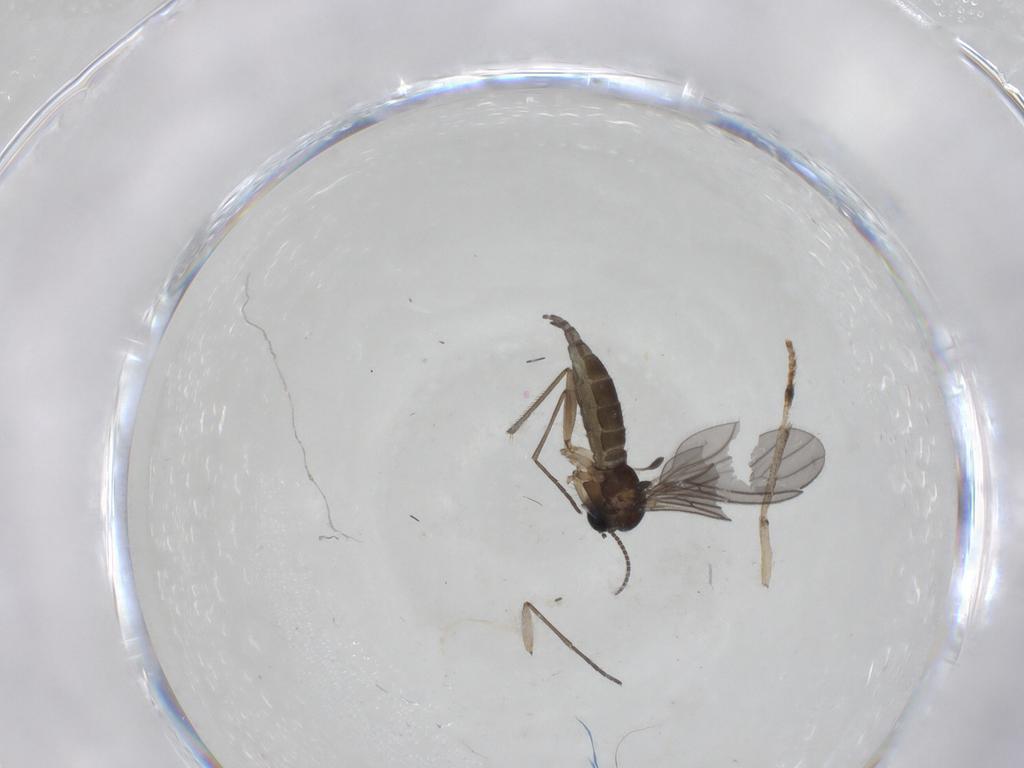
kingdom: Animalia
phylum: Arthropoda
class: Insecta
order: Diptera
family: Sciaridae
